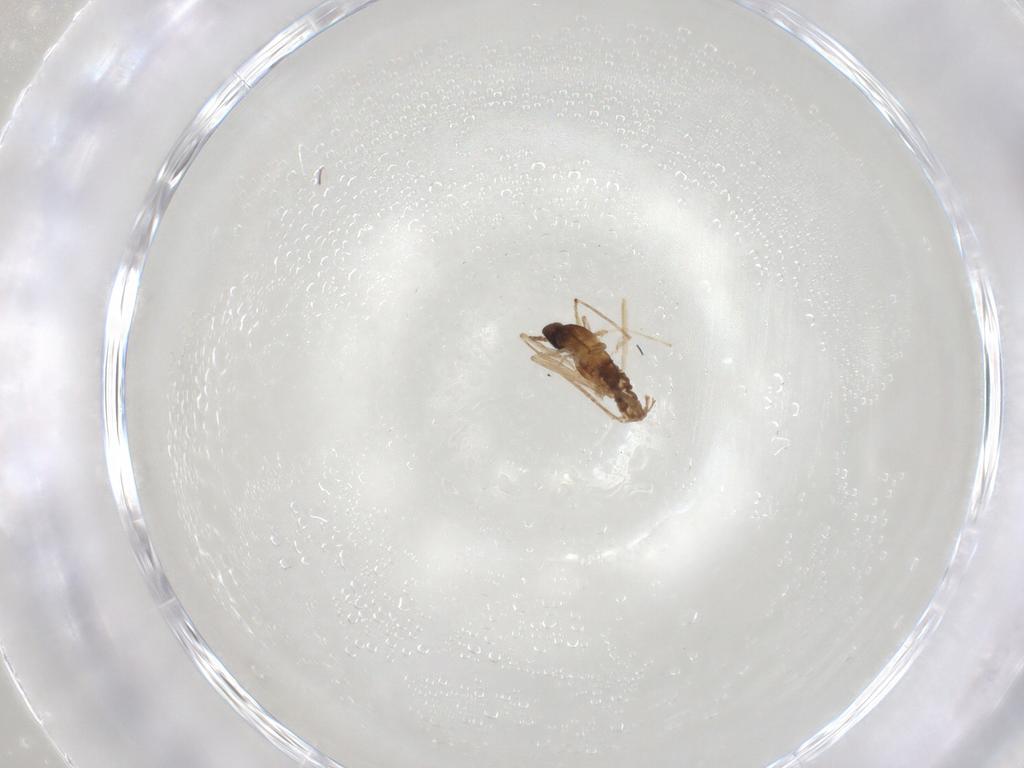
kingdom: Animalia
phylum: Arthropoda
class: Insecta
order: Diptera
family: Cecidomyiidae
